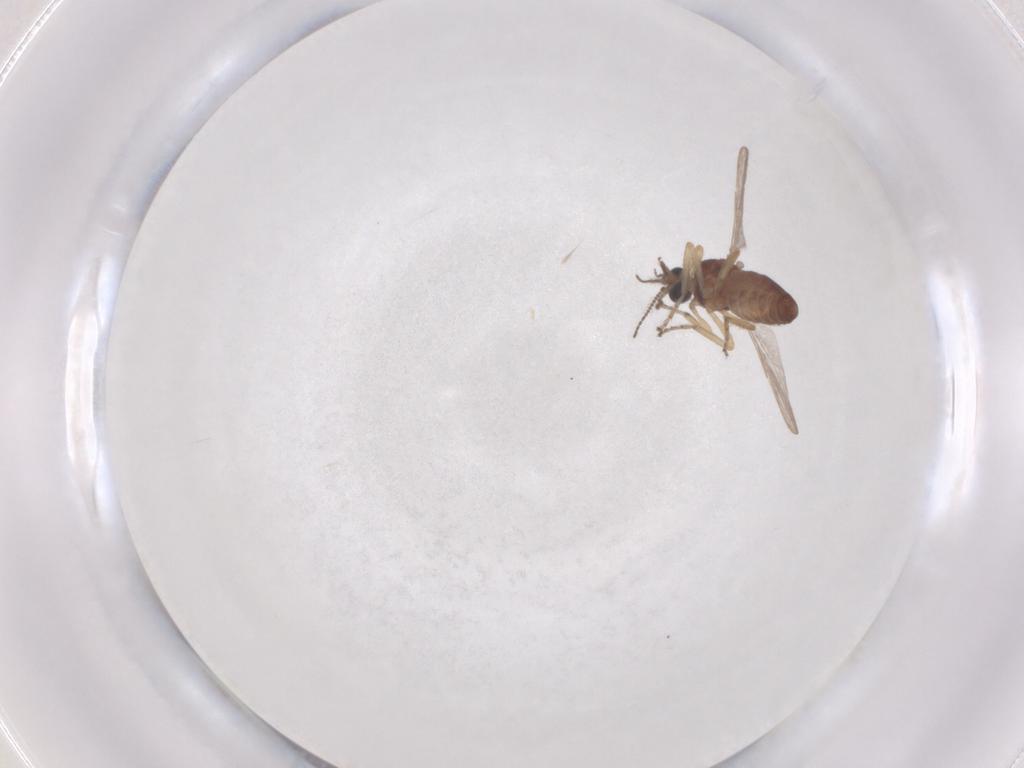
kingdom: Animalia
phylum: Arthropoda
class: Insecta
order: Diptera
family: Ceratopogonidae
